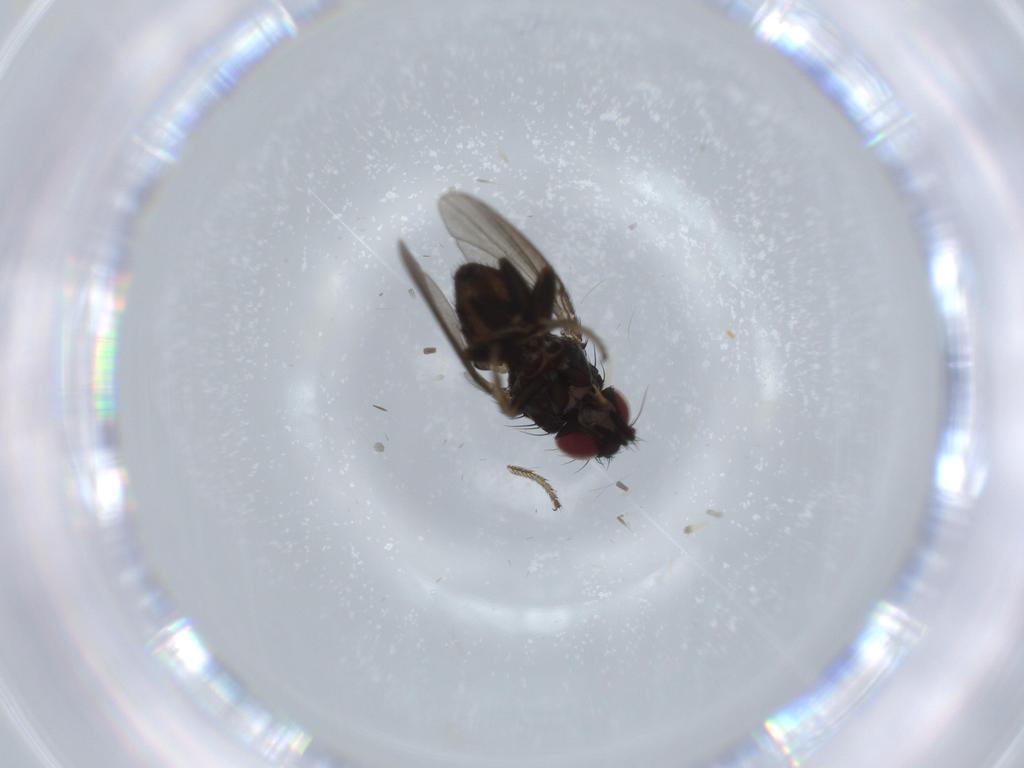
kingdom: Animalia
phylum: Arthropoda
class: Insecta
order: Diptera
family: Milichiidae
